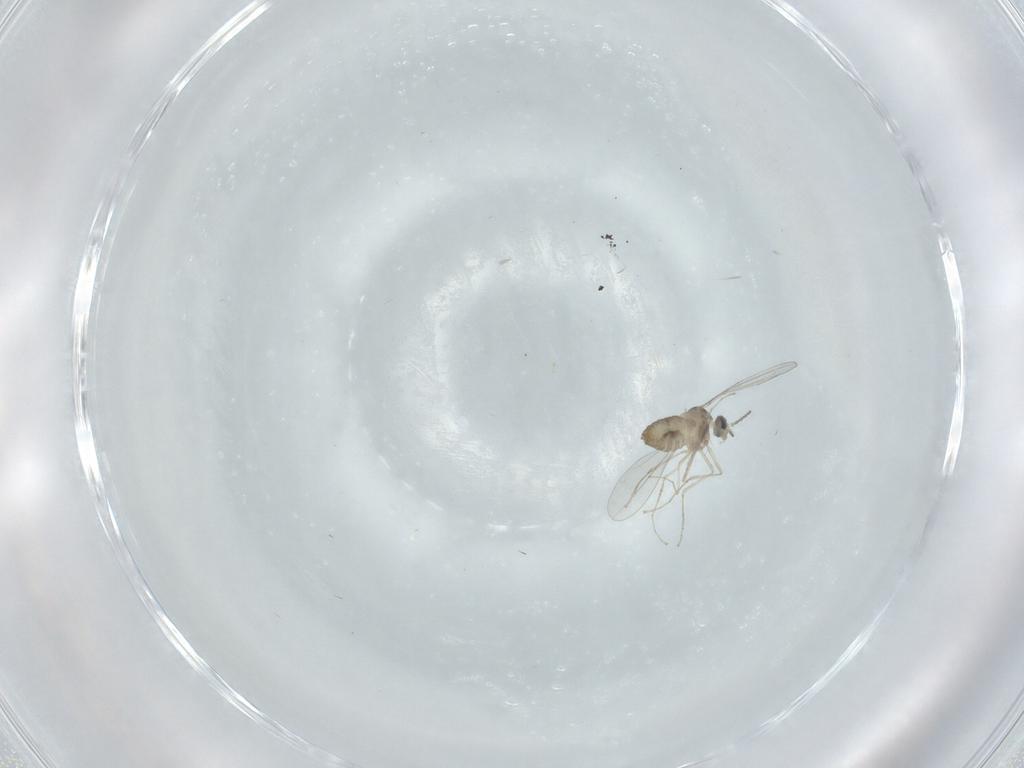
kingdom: Animalia
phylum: Arthropoda
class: Insecta
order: Diptera
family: Cecidomyiidae
